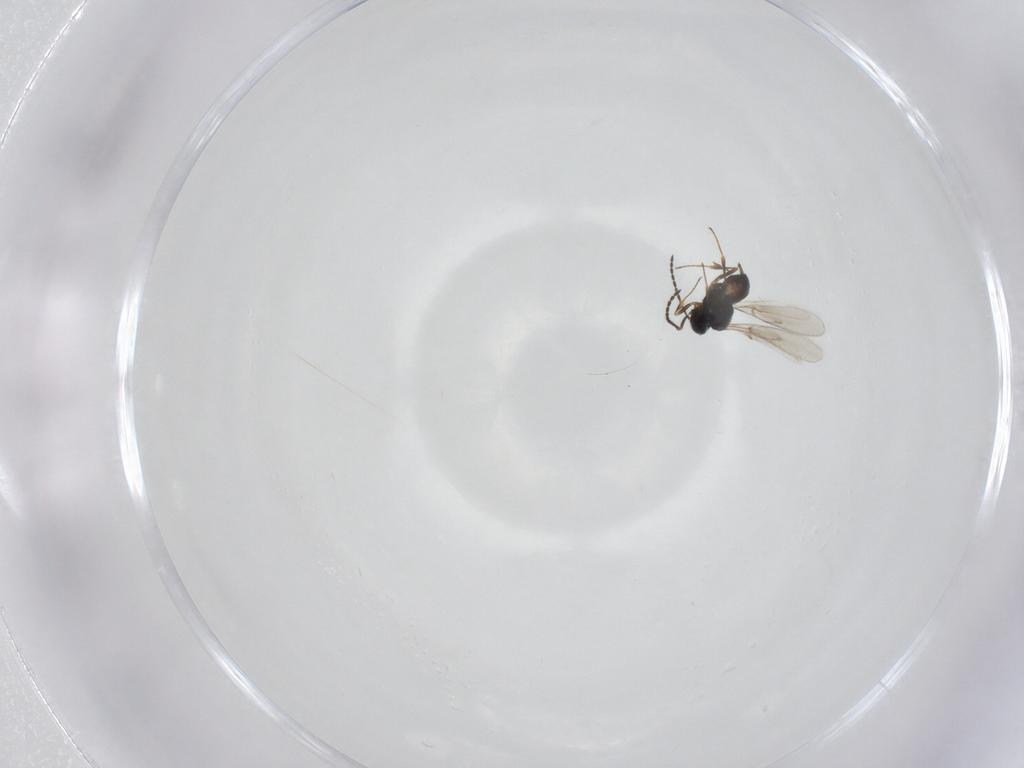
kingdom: Animalia
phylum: Arthropoda
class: Insecta
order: Hymenoptera
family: Scelionidae
